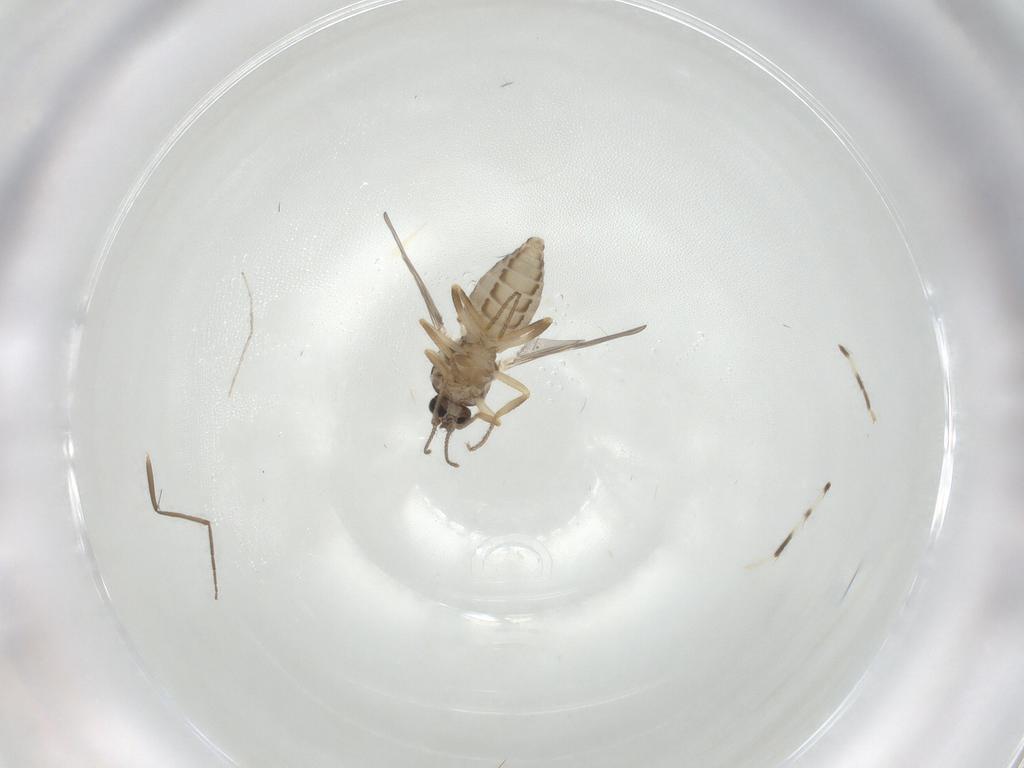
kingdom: Animalia
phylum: Arthropoda
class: Insecta
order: Diptera
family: Ceratopogonidae
